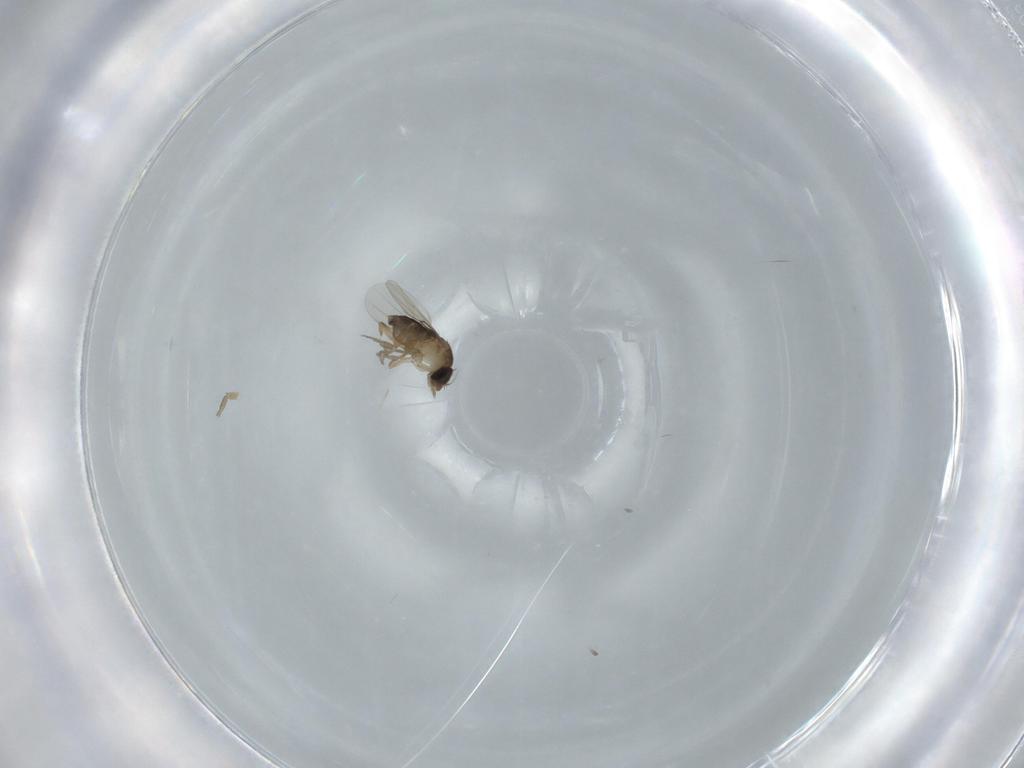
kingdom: Animalia
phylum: Arthropoda
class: Insecta
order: Diptera
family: Phoridae
